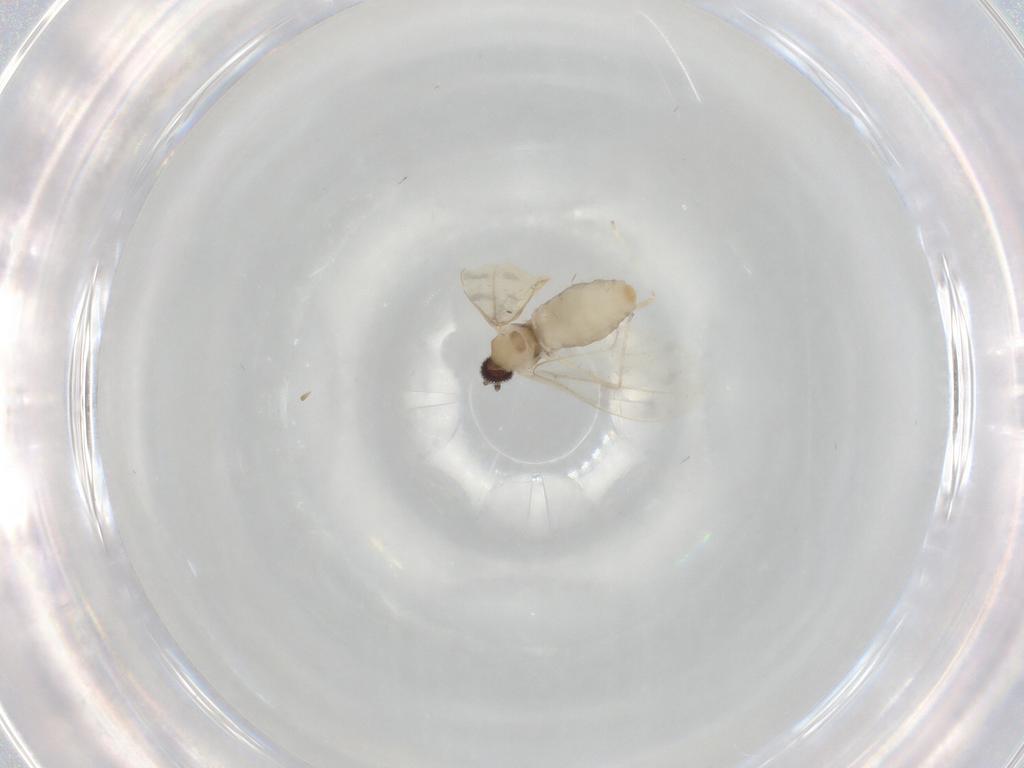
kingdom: Animalia
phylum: Arthropoda
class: Insecta
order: Diptera
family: Cecidomyiidae
